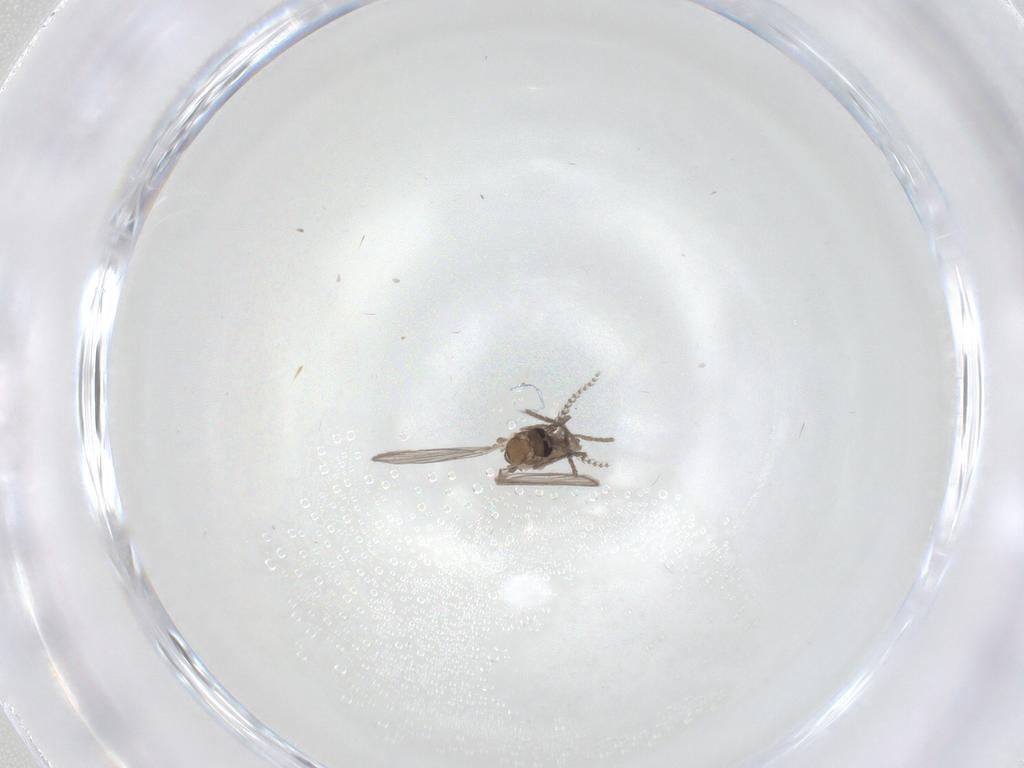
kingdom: Animalia
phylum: Arthropoda
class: Insecta
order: Diptera
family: Psychodidae
